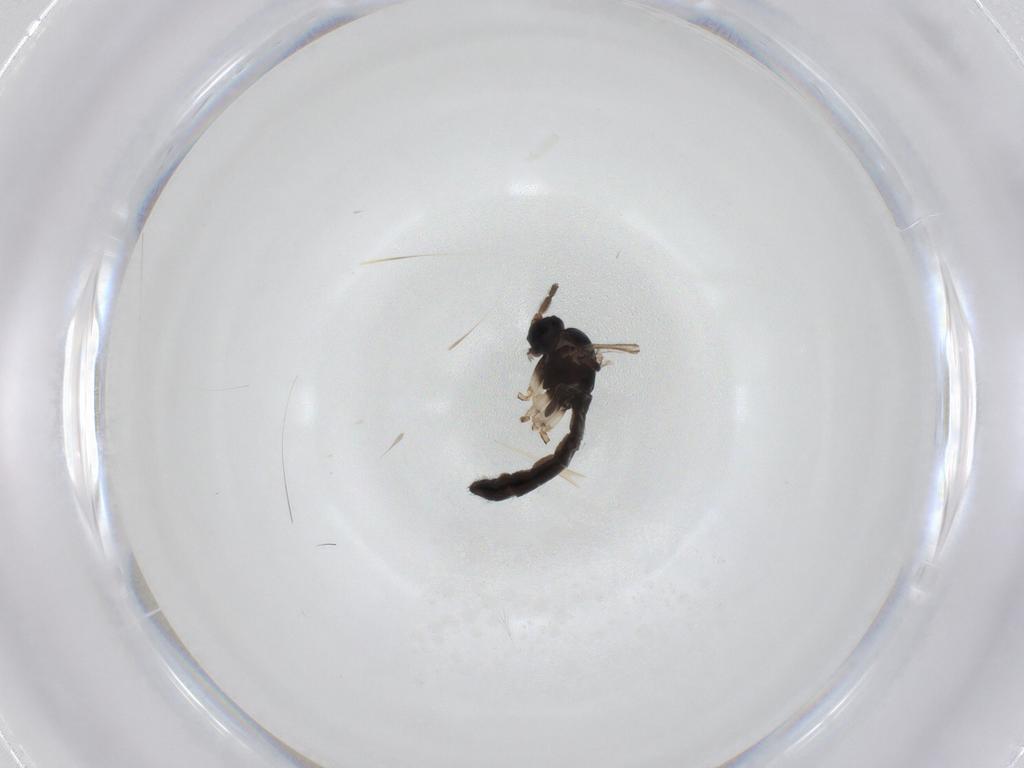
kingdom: Animalia
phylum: Arthropoda
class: Insecta
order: Diptera
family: Sciaridae
